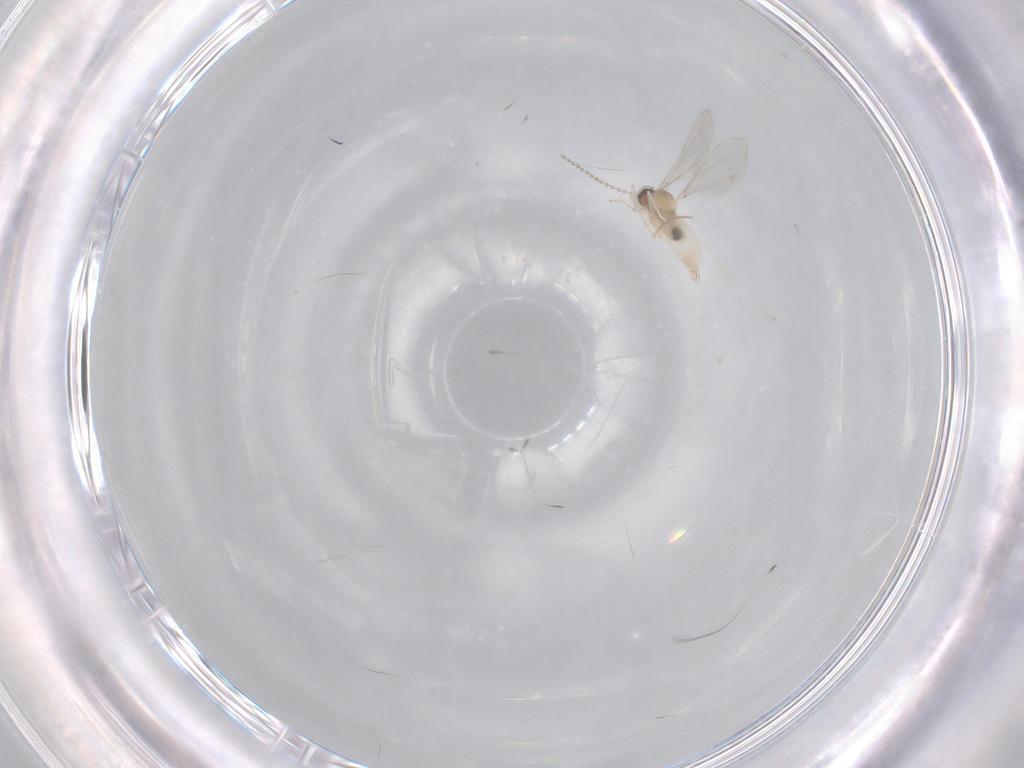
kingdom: Animalia
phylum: Arthropoda
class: Insecta
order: Diptera
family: Cecidomyiidae
